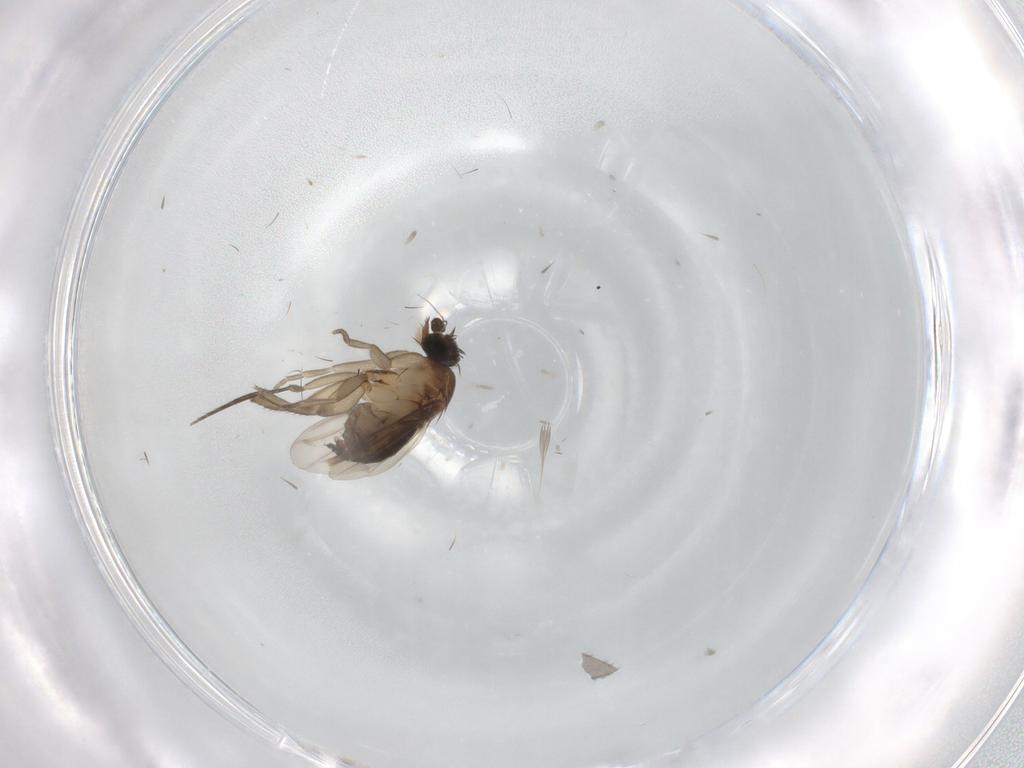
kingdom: Animalia
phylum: Arthropoda
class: Insecta
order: Diptera
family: Phoridae
